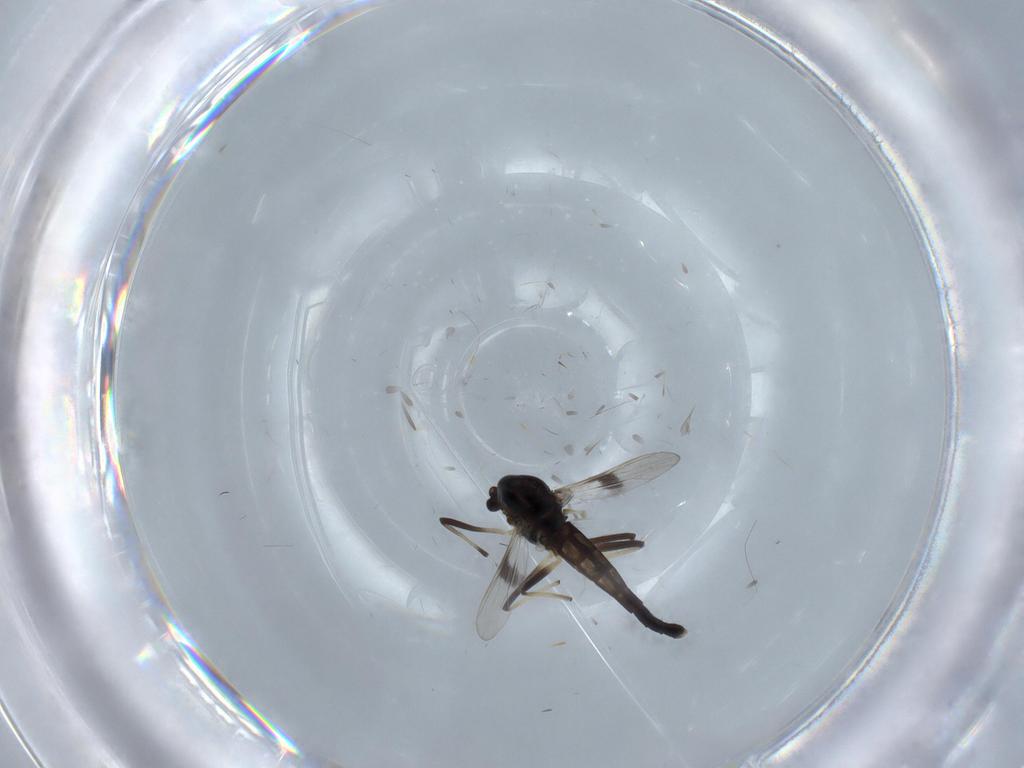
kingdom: Animalia
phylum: Arthropoda
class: Insecta
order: Diptera
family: Chironomidae
